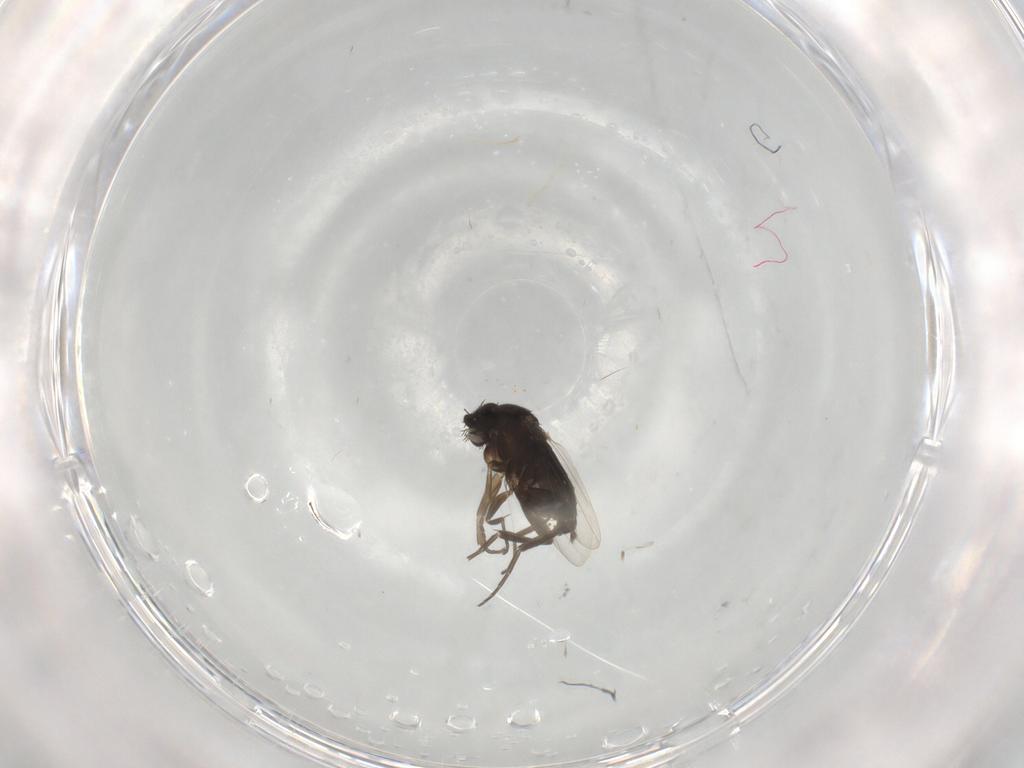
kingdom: Animalia
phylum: Arthropoda
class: Insecta
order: Diptera
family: Phoridae
